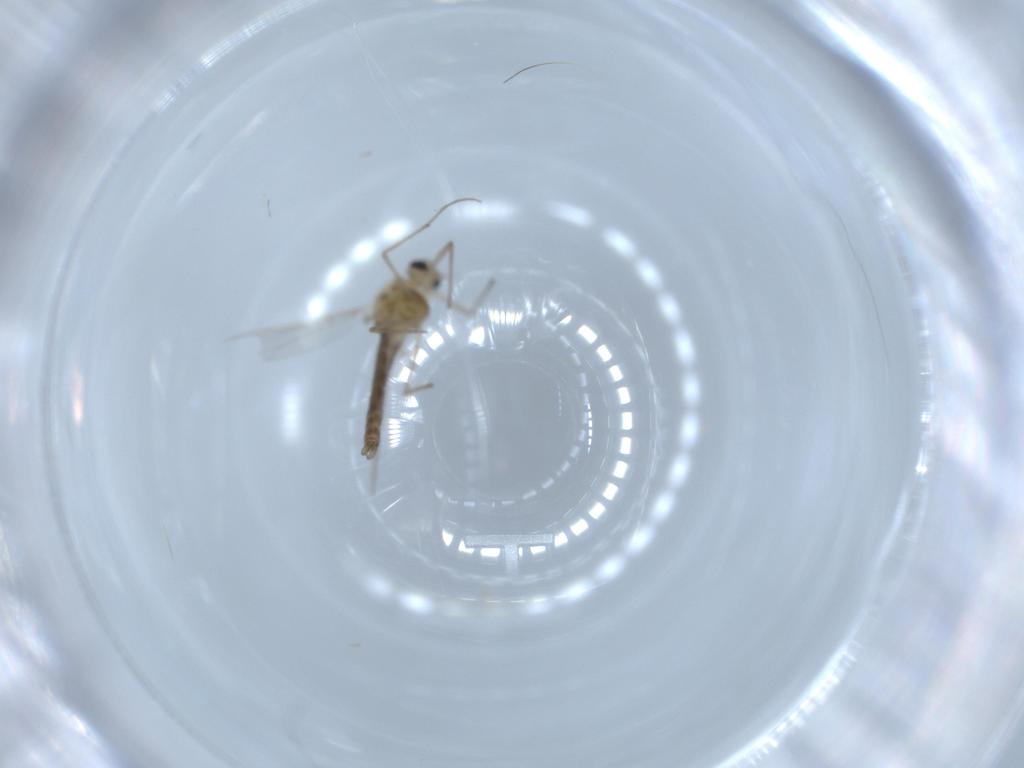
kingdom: Animalia
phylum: Arthropoda
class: Insecta
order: Diptera
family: Chironomidae
